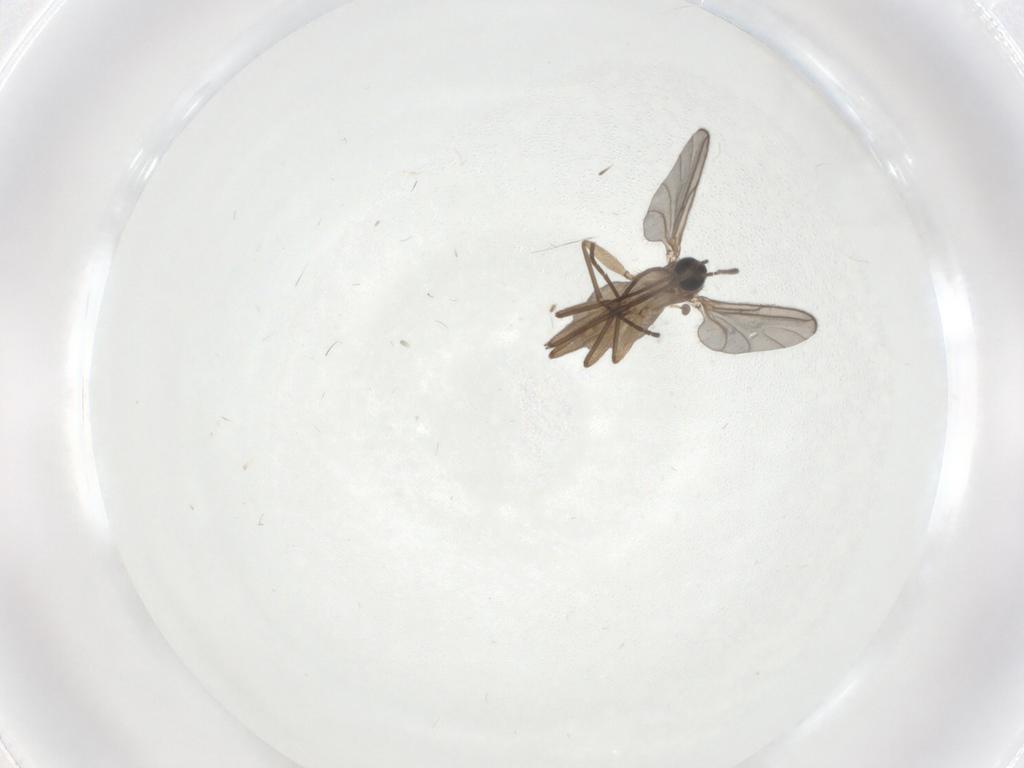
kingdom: Animalia
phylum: Arthropoda
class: Insecta
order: Diptera
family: Sciaridae
